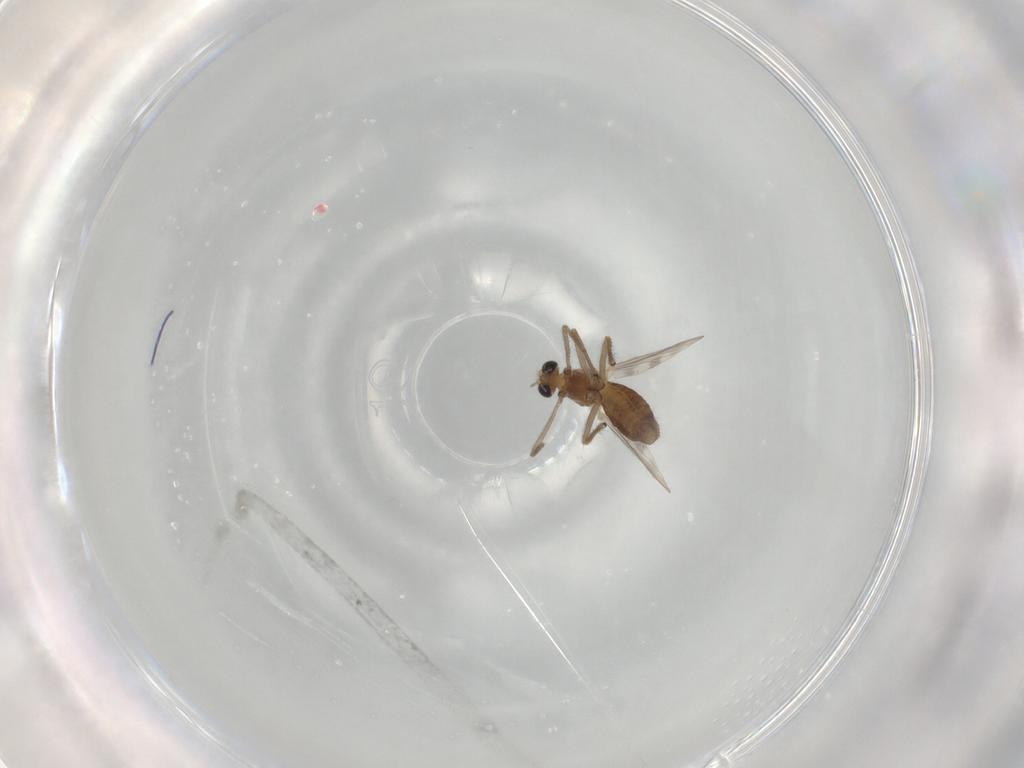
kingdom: Animalia
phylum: Arthropoda
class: Insecta
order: Diptera
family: Chironomidae
